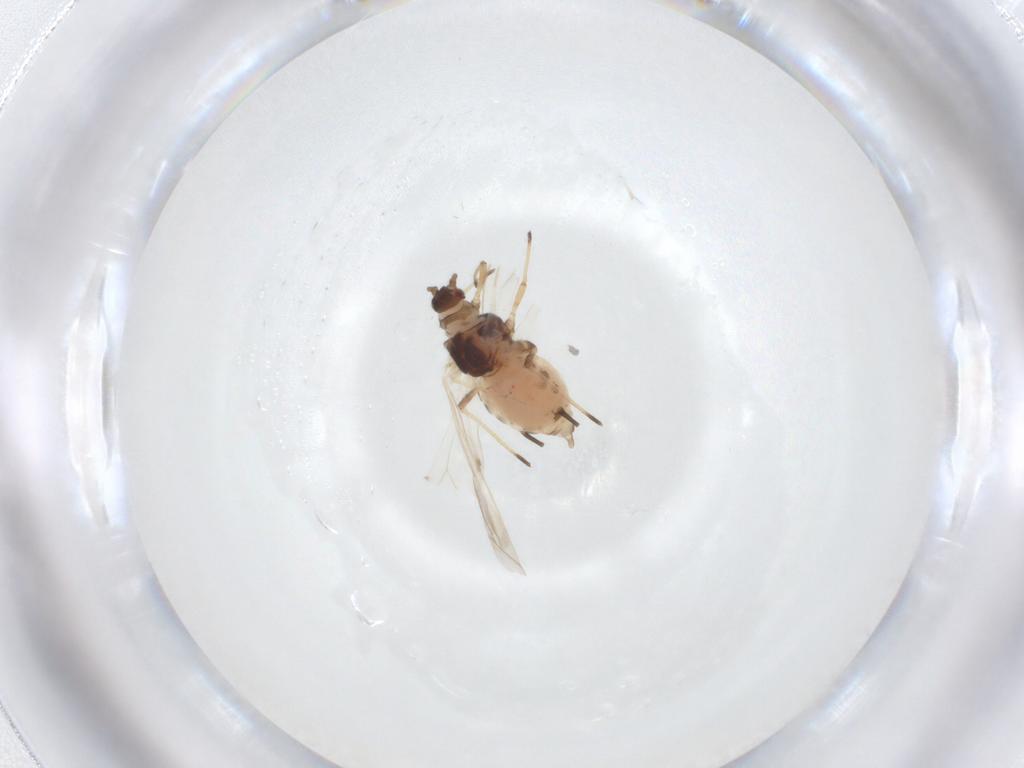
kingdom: Animalia
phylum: Arthropoda
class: Insecta
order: Hemiptera
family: Aphididae
